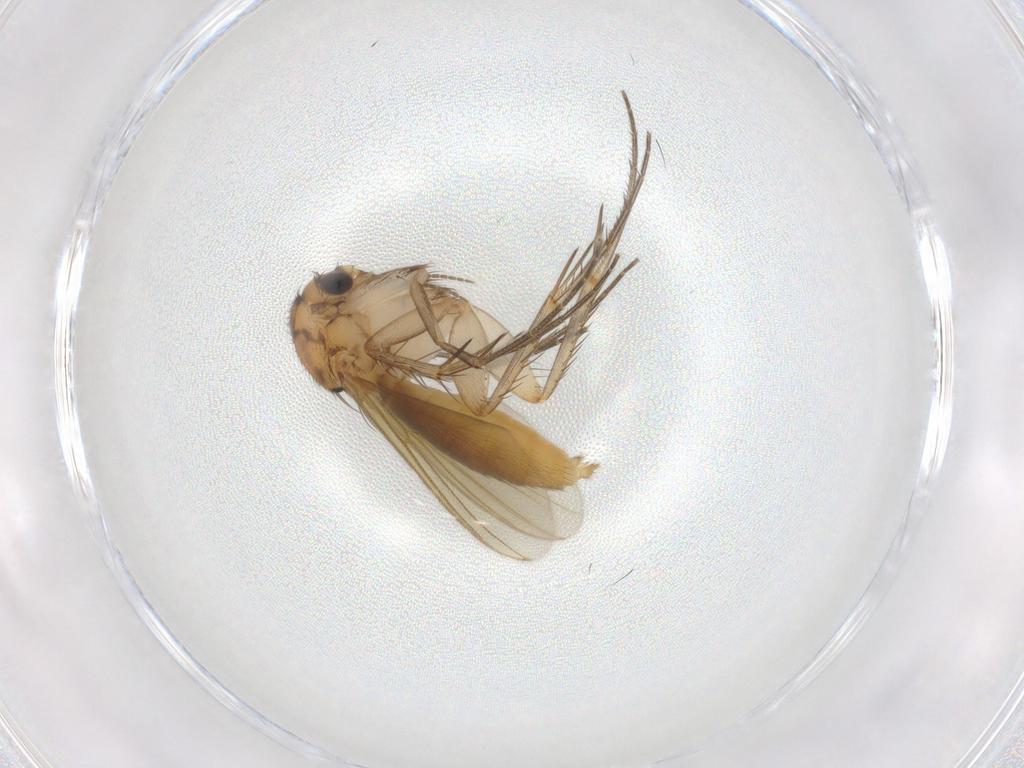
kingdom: Animalia
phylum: Arthropoda
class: Insecta
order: Diptera
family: Mycetophilidae
